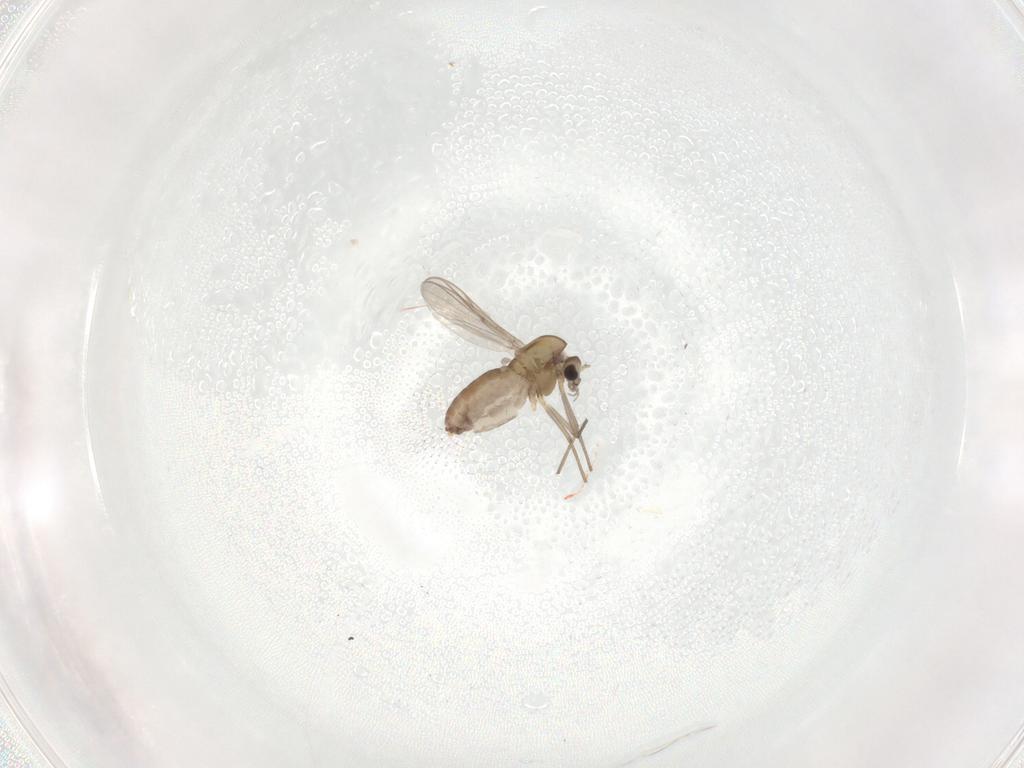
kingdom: Animalia
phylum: Arthropoda
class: Insecta
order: Diptera
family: Chironomidae
